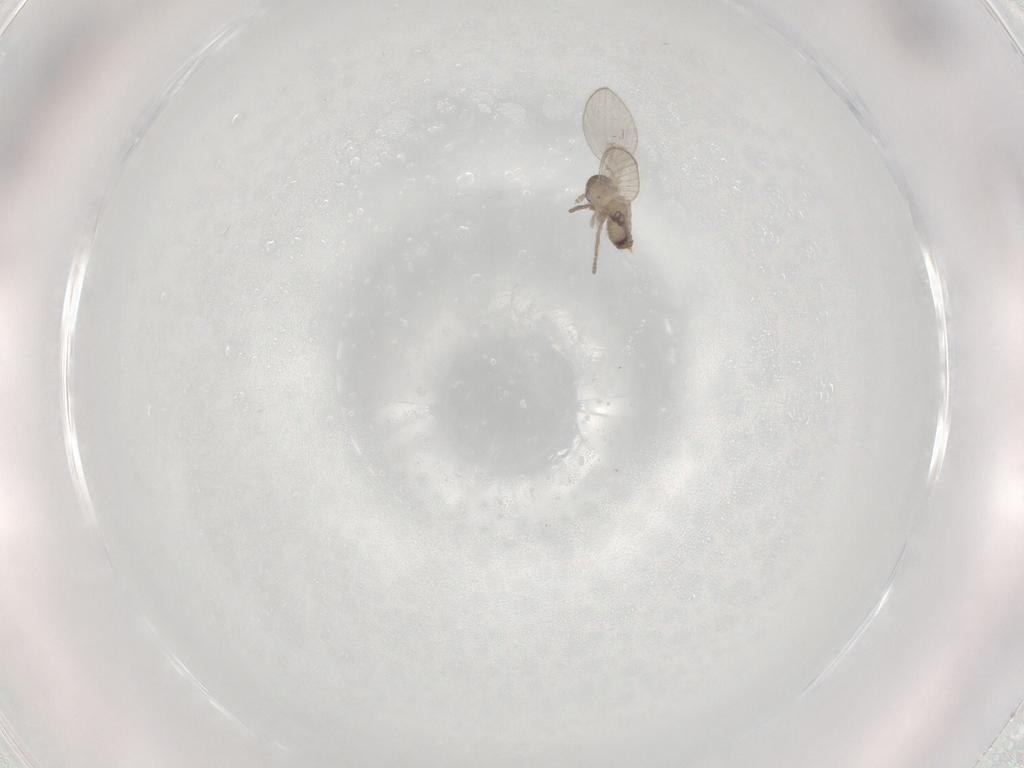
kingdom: Animalia
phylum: Arthropoda
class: Insecta
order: Diptera
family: Psychodidae
